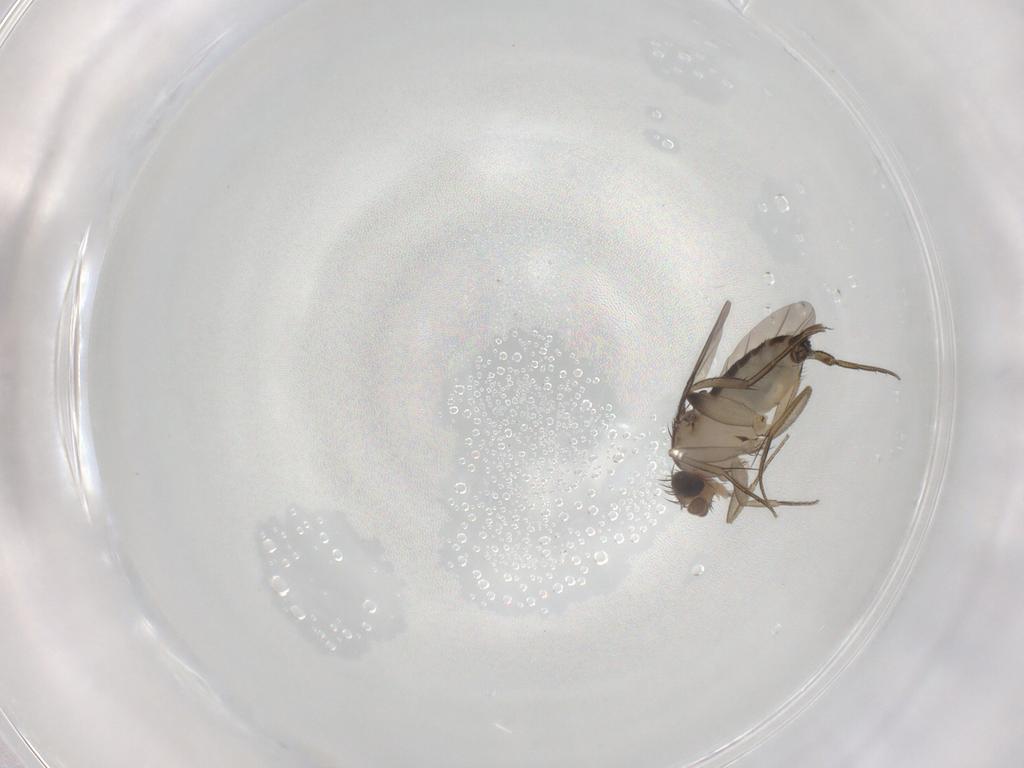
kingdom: Animalia
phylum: Arthropoda
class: Insecta
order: Diptera
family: Phoridae
